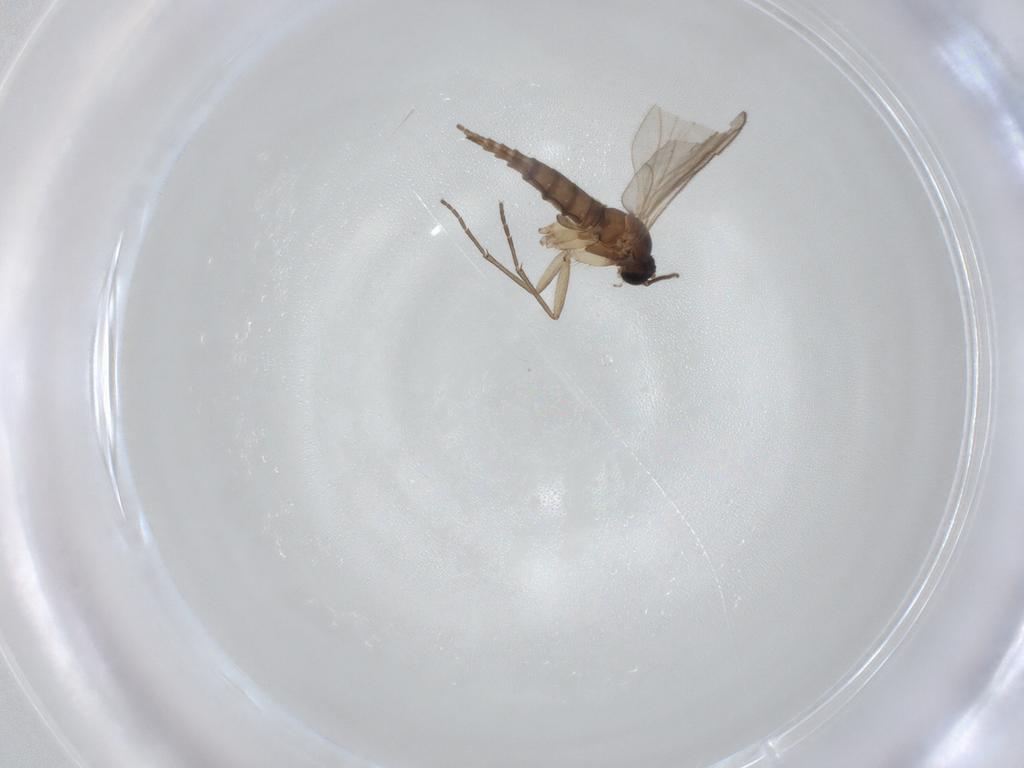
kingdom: Animalia
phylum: Arthropoda
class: Insecta
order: Diptera
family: Sciaridae
